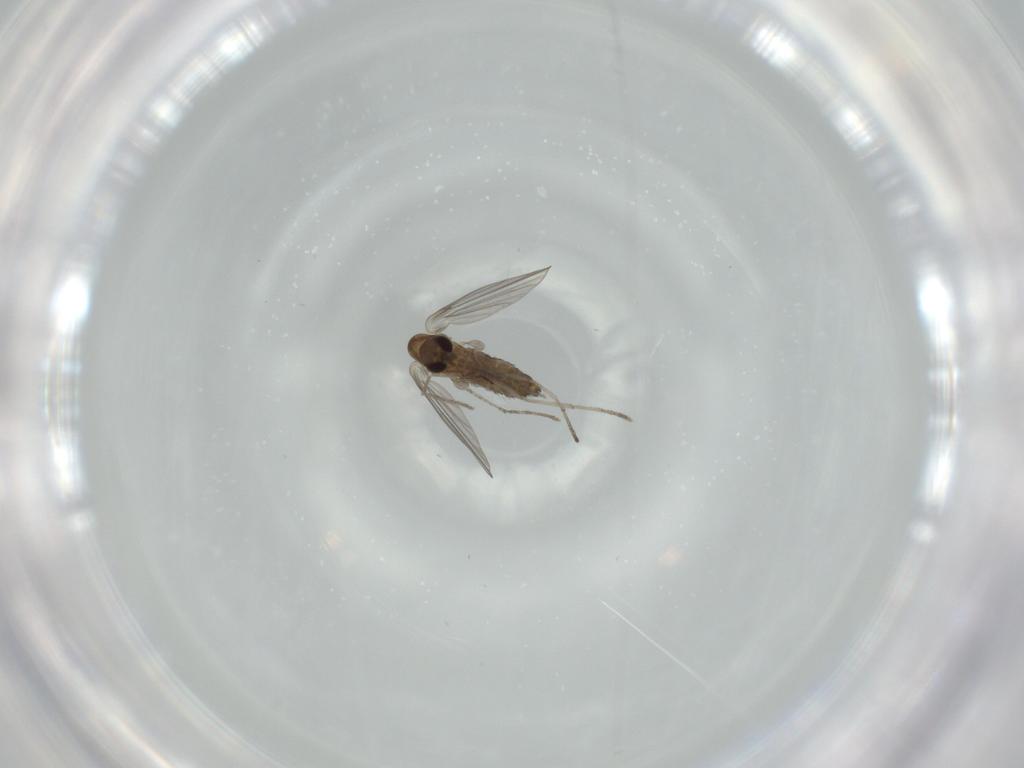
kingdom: Animalia
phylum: Arthropoda
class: Insecta
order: Diptera
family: Psychodidae
